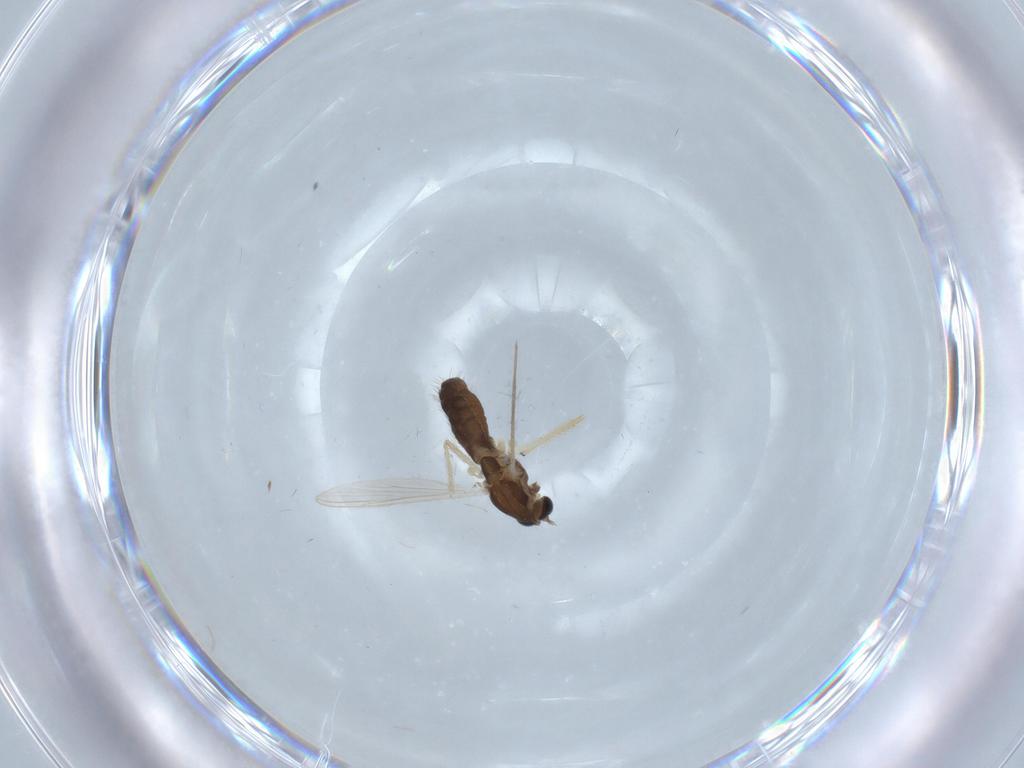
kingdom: Animalia
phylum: Arthropoda
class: Insecta
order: Diptera
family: Chironomidae
